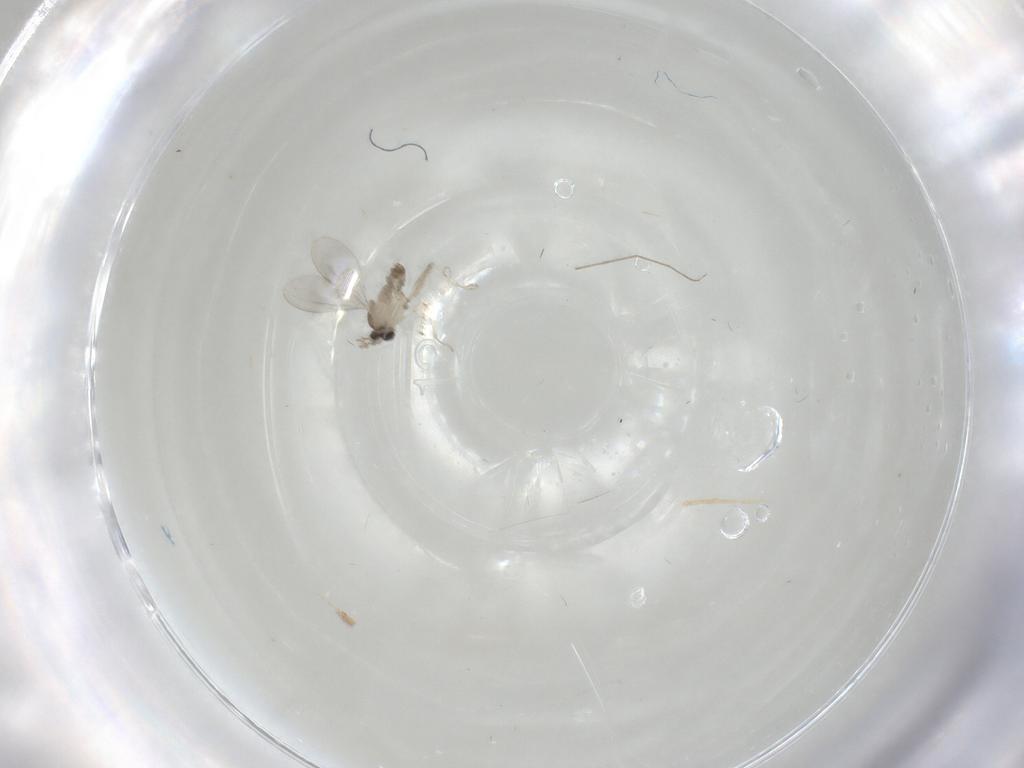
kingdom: Animalia
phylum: Arthropoda
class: Insecta
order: Diptera
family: Cecidomyiidae
